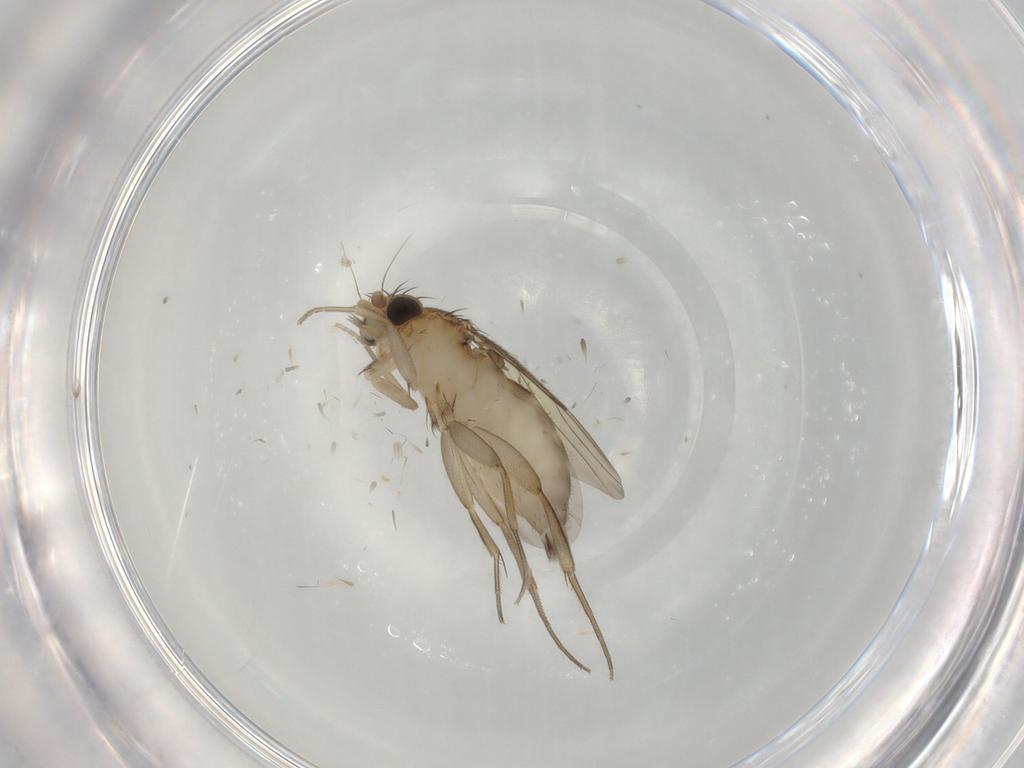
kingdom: Animalia
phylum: Arthropoda
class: Insecta
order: Diptera
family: Phoridae
